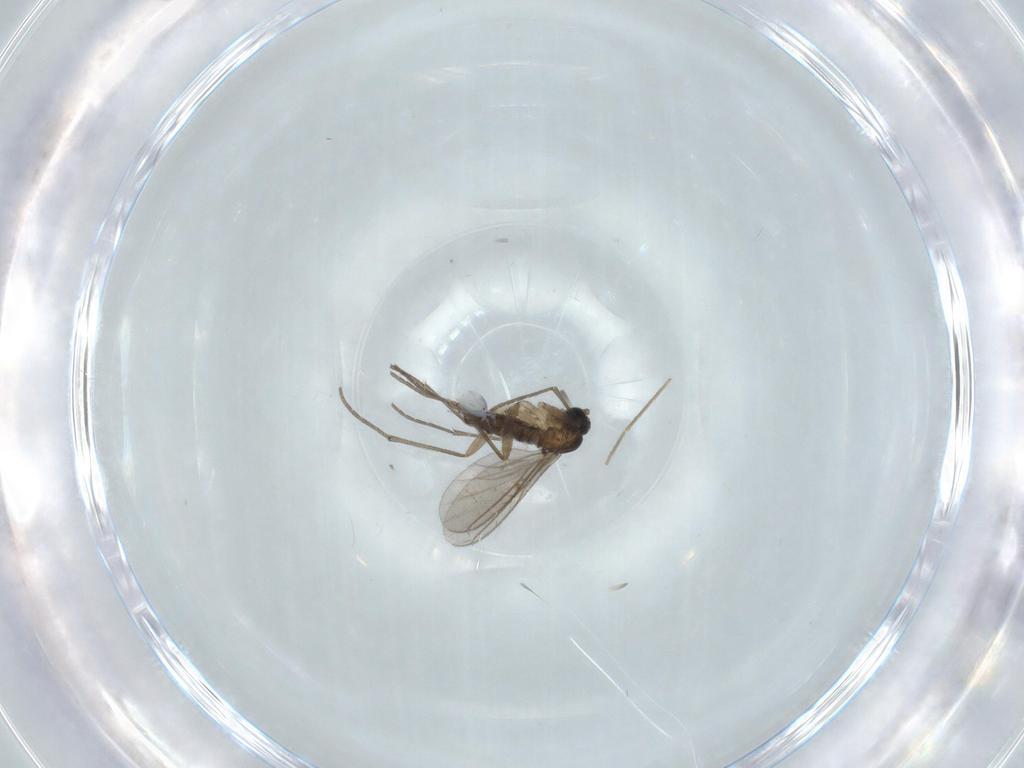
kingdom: Animalia
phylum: Arthropoda
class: Insecta
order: Diptera
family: Sciaridae
